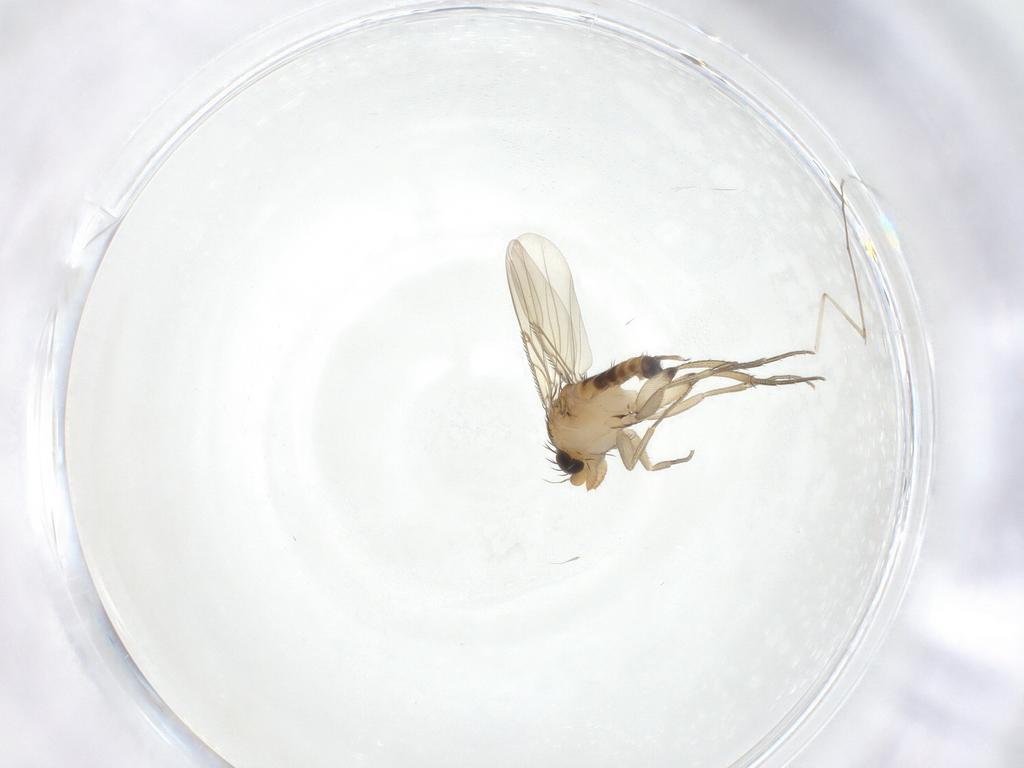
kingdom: Animalia
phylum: Arthropoda
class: Insecta
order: Diptera
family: Phoridae
